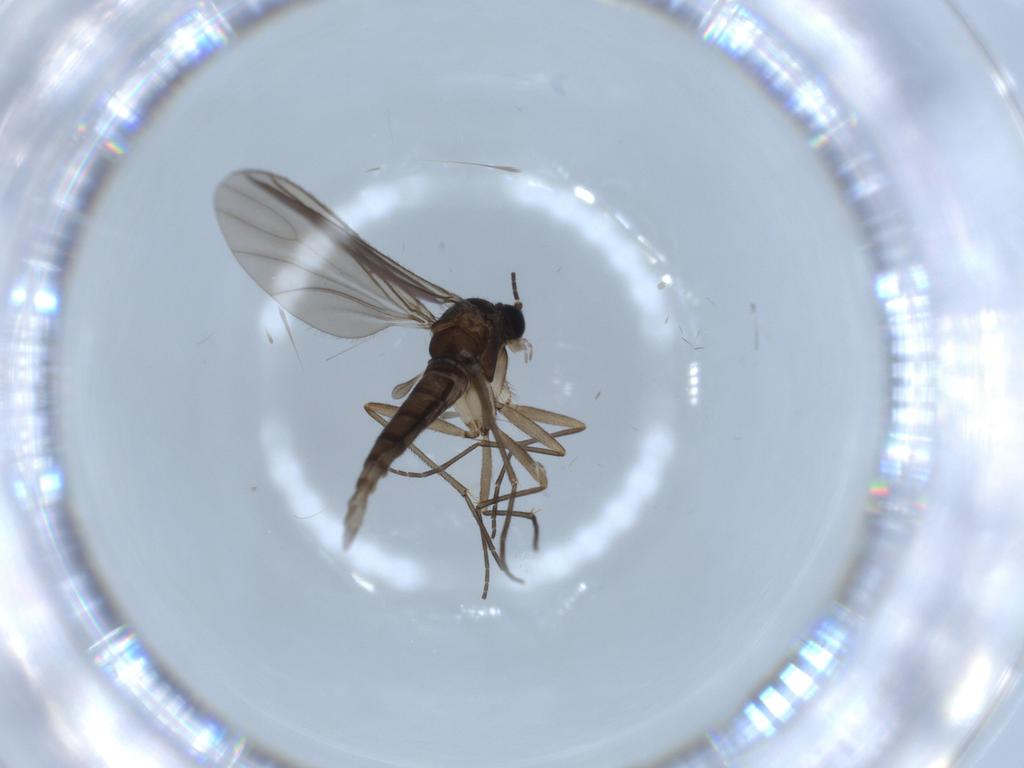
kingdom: Animalia
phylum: Arthropoda
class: Insecta
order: Diptera
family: Sciaridae
